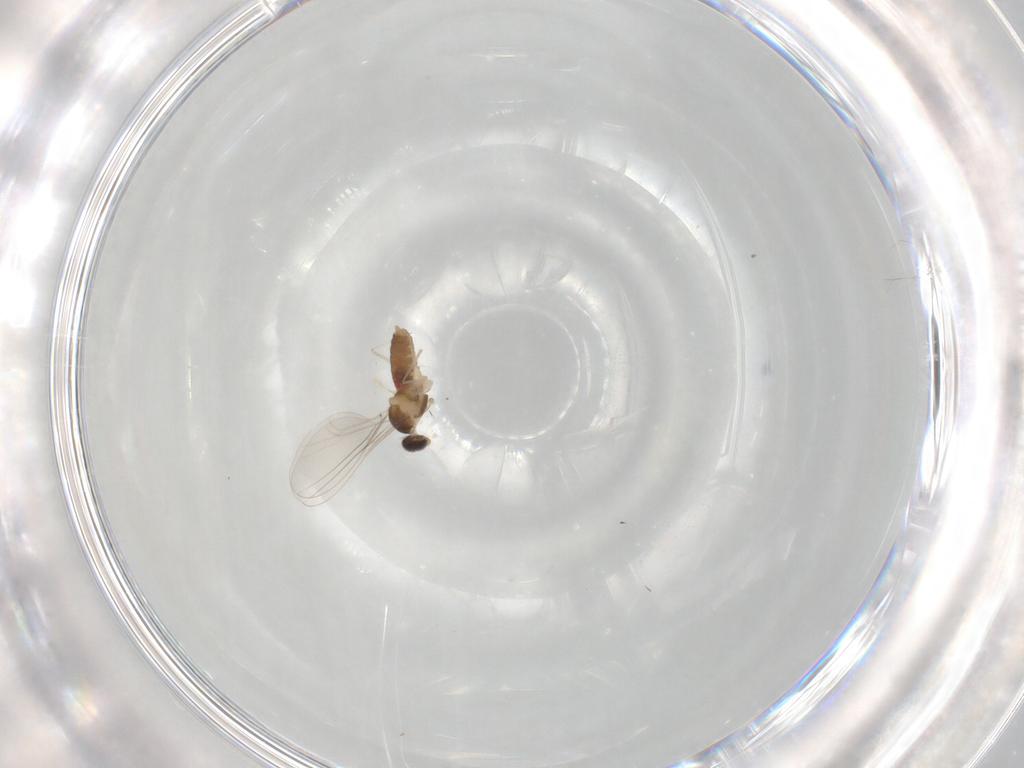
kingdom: Animalia
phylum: Arthropoda
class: Insecta
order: Diptera
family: Cecidomyiidae
